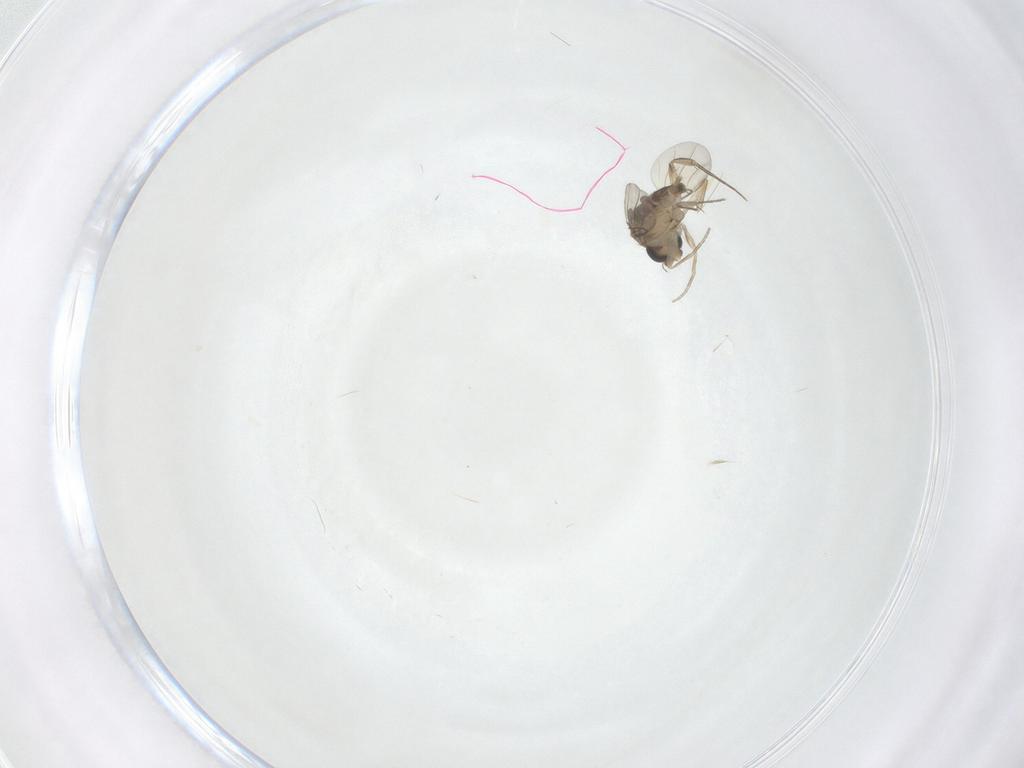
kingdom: Animalia
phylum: Arthropoda
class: Insecta
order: Diptera
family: Phoridae
